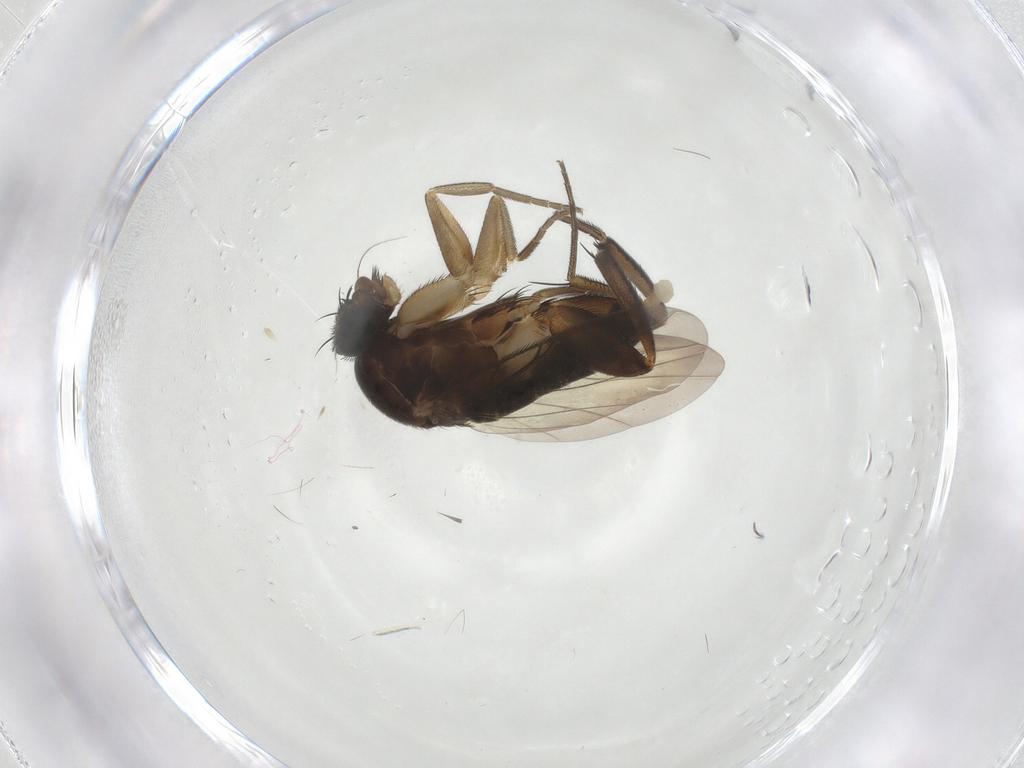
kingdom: Animalia
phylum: Arthropoda
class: Insecta
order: Diptera
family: Phoridae
